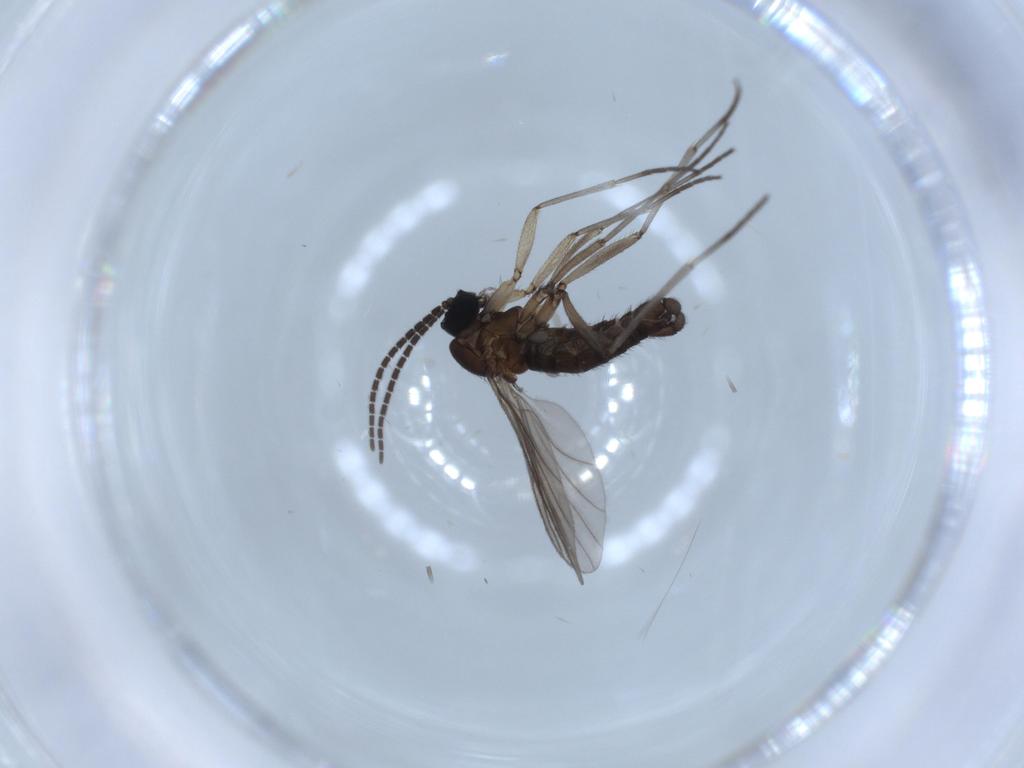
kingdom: Animalia
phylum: Arthropoda
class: Insecta
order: Diptera
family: Sciaridae
